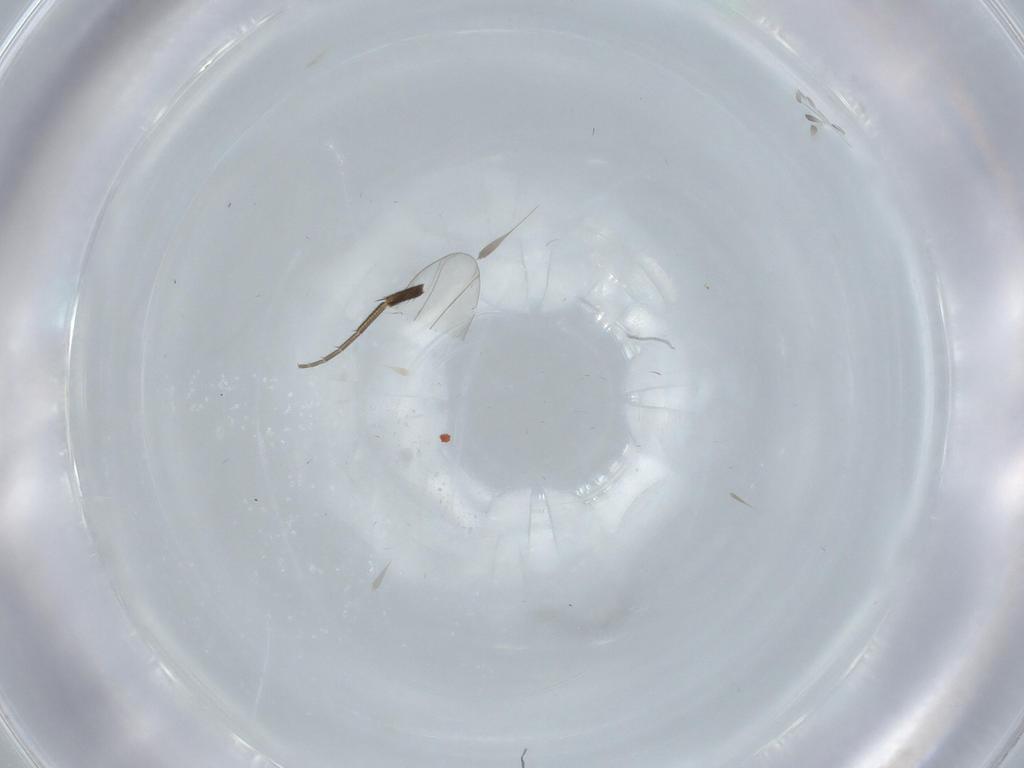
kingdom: Animalia
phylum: Arthropoda
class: Insecta
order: Diptera
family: Phoridae
